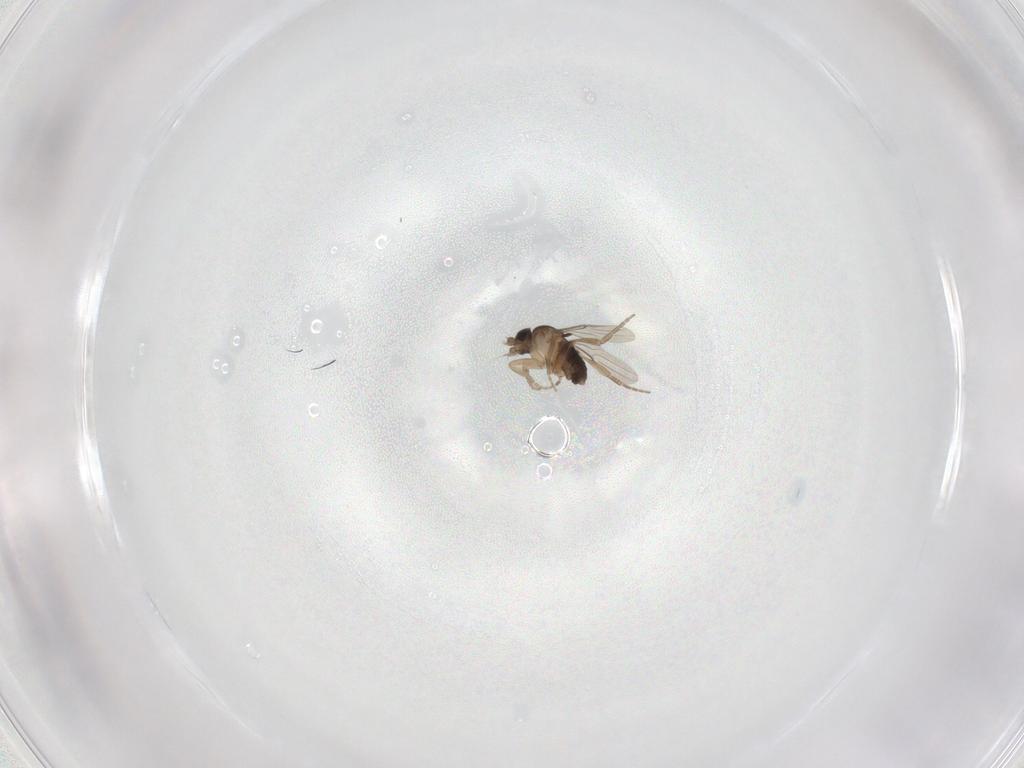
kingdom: Animalia
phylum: Arthropoda
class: Insecta
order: Diptera
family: Phoridae
